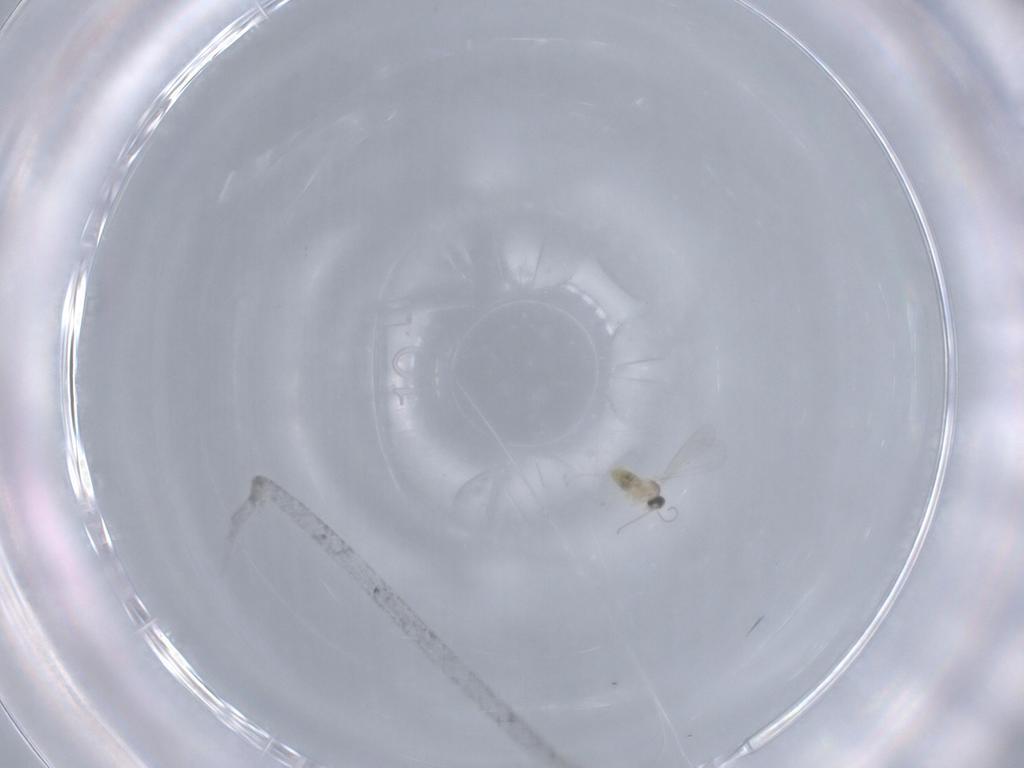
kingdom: Animalia
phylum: Arthropoda
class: Insecta
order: Diptera
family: Cecidomyiidae
